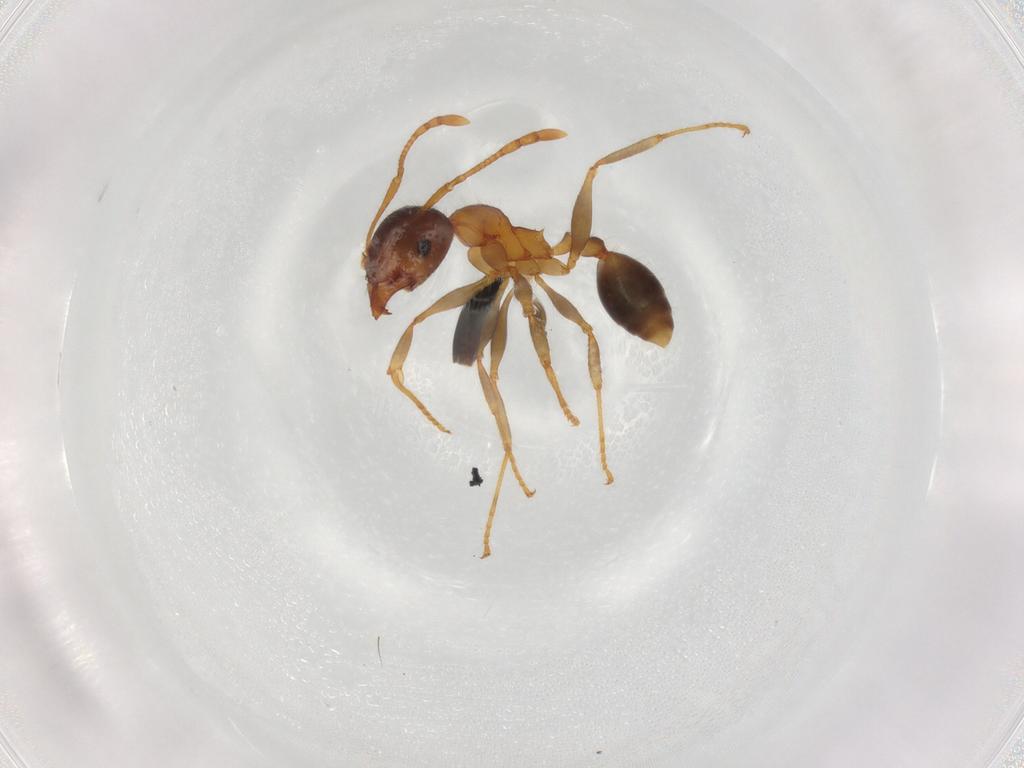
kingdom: Animalia
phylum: Arthropoda
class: Insecta
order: Hymenoptera
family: Diapriidae
